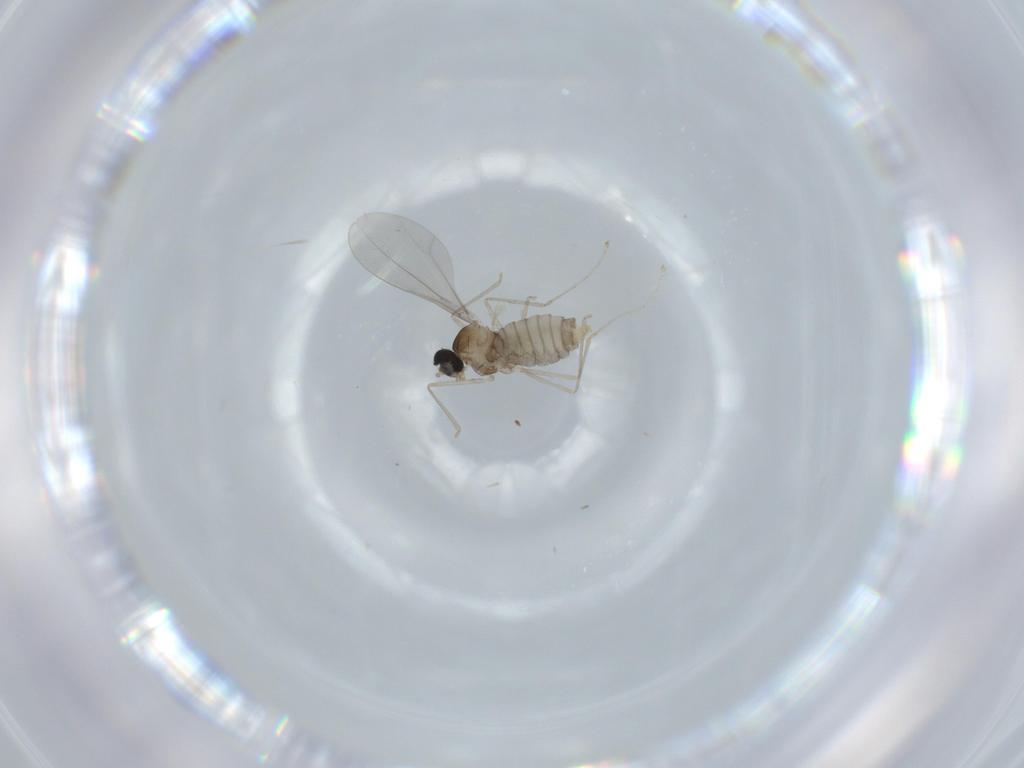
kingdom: Animalia
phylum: Arthropoda
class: Insecta
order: Diptera
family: Cecidomyiidae
